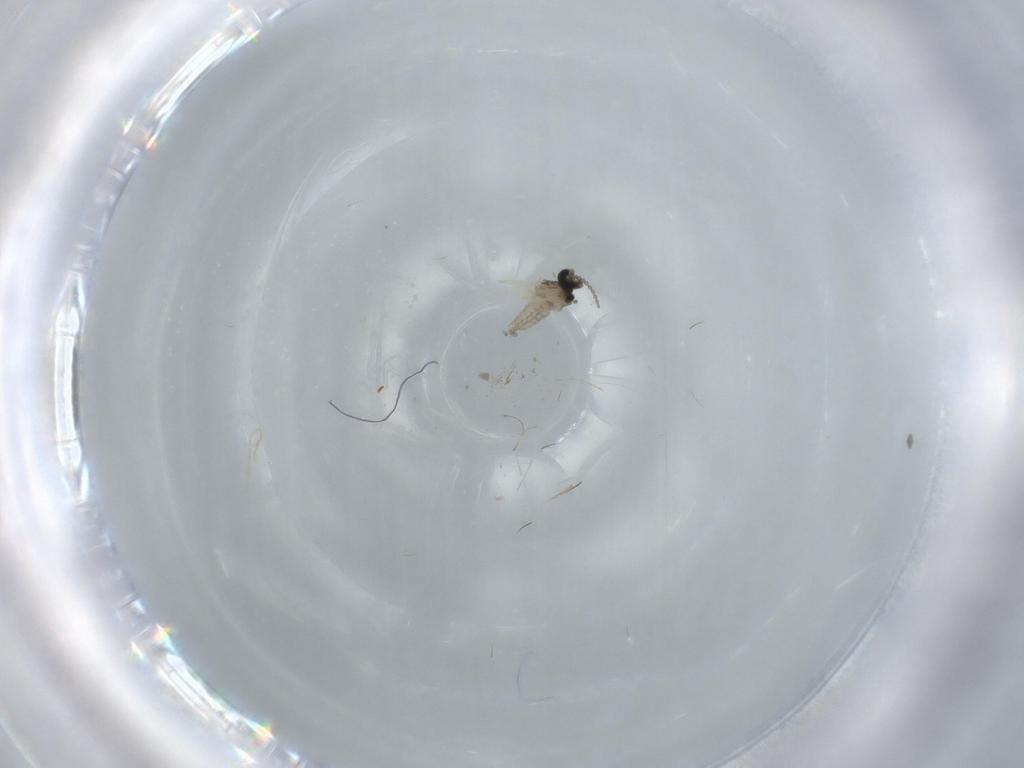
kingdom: Animalia
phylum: Arthropoda
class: Insecta
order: Diptera
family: Cecidomyiidae
